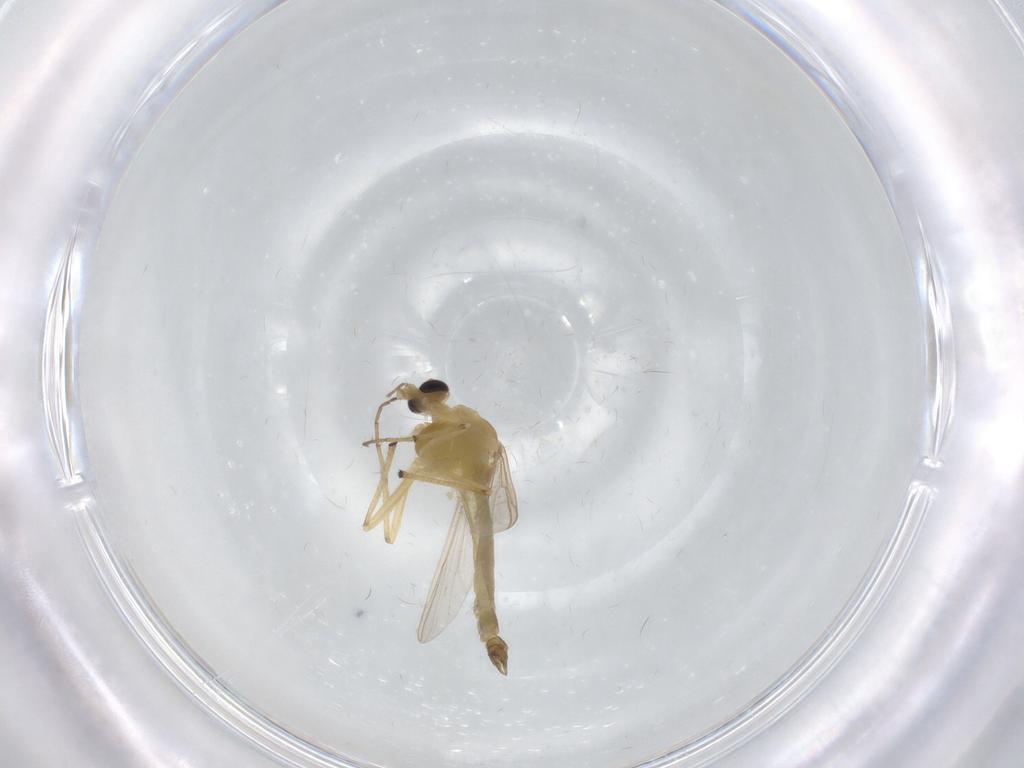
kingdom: Animalia
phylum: Arthropoda
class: Insecta
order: Diptera
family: Chironomidae
